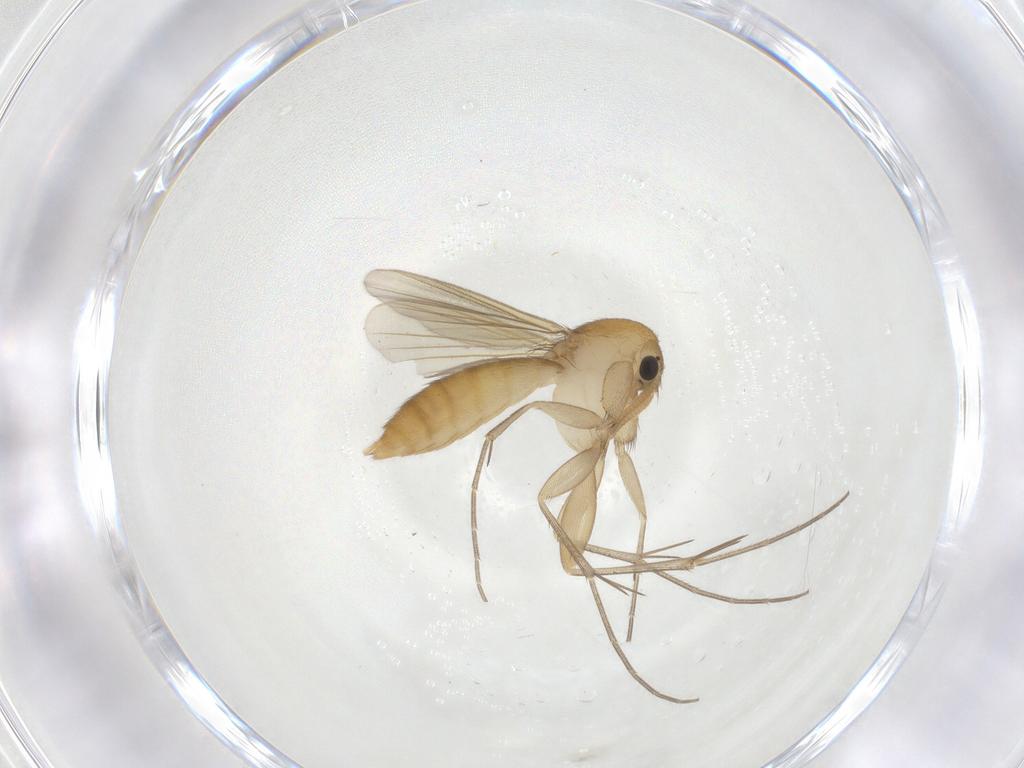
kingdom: Animalia
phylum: Arthropoda
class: Insecta
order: Diptera
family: Mycetophilidae
